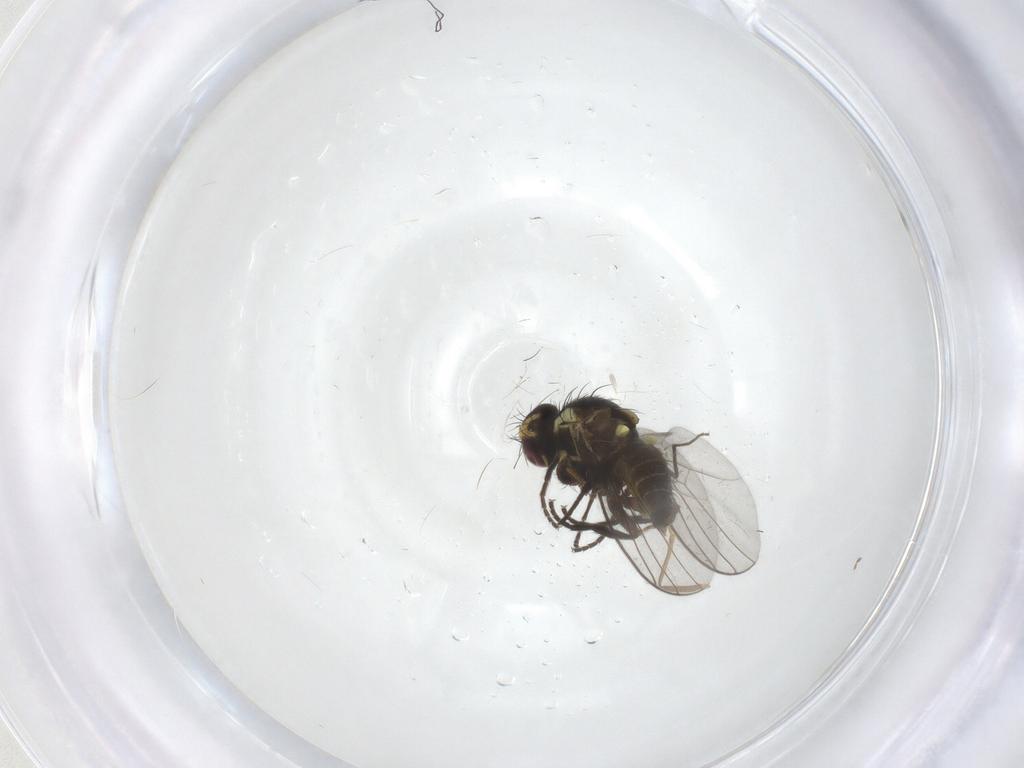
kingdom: Animalia
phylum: Arthropoda
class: Insecta
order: Diptera
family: Agromyzidae
